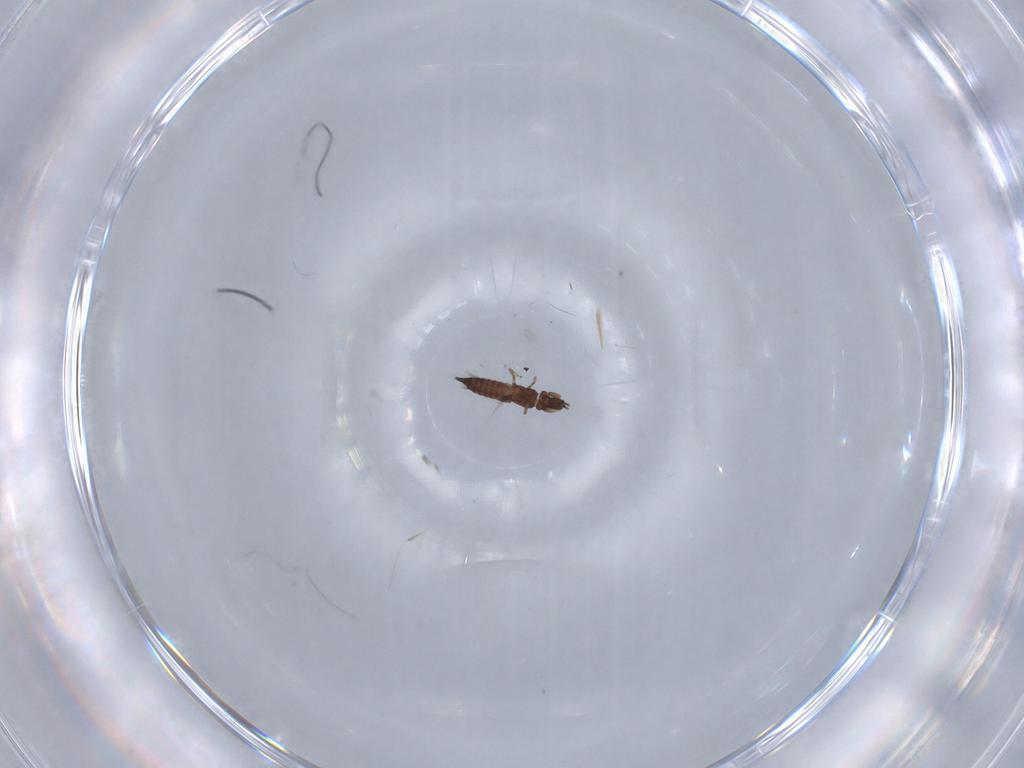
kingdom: Animalia
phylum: Arthropoda
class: Insecta
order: Thysanoptera
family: Phlaeothripidae
